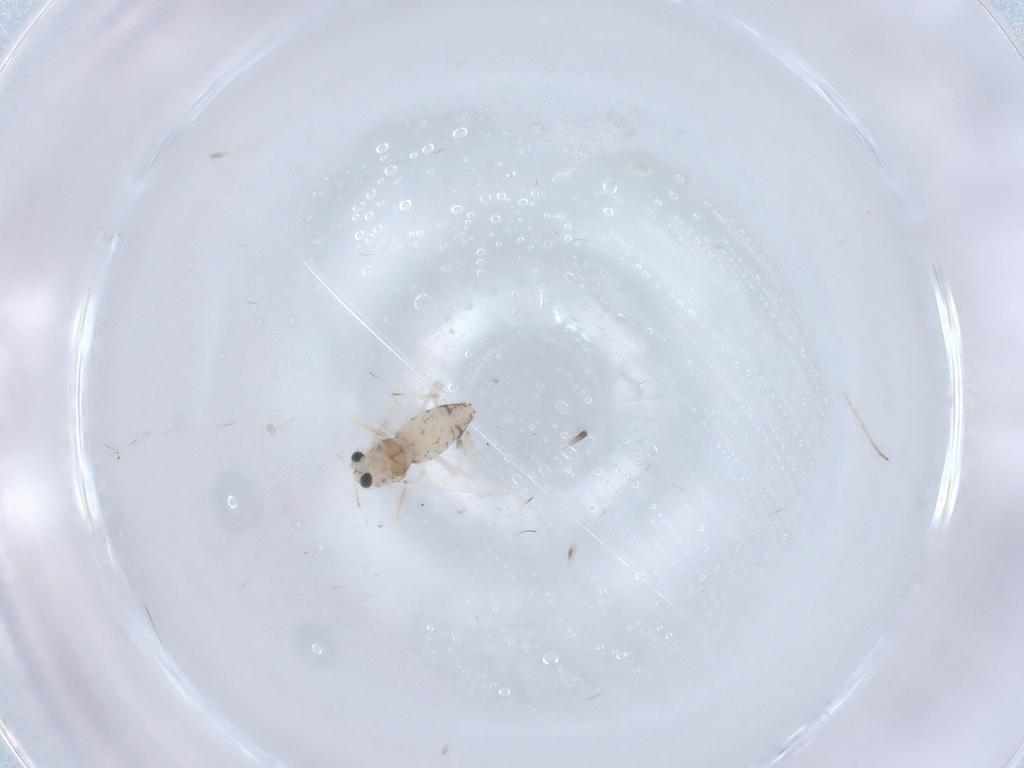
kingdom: Animalia
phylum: Arthropoda
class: Insecta
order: Diptera
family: Chironomidae
